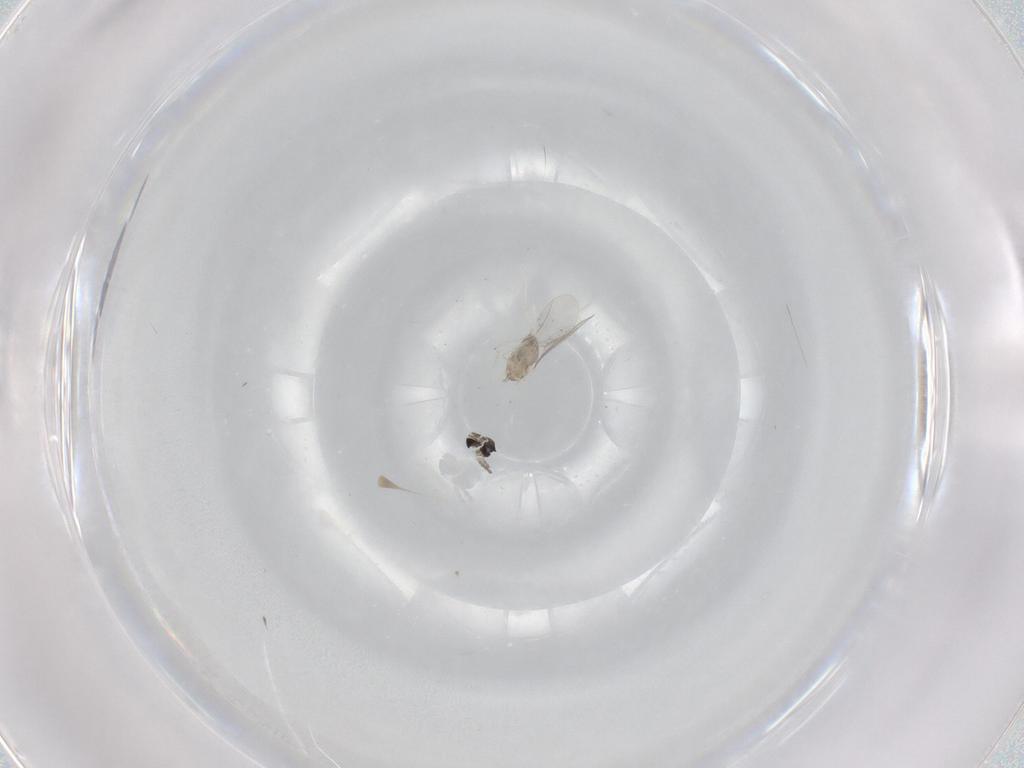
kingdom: Animalia
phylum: Arthropoda
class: Insecta
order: Diptera
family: Cecidomyiidae
